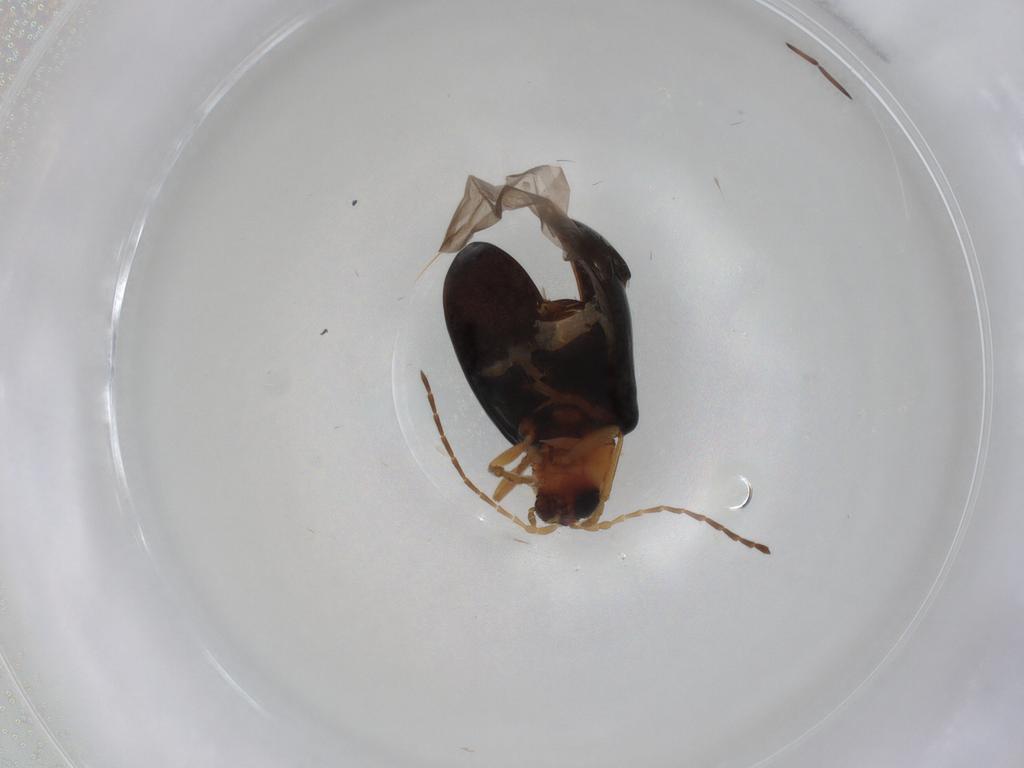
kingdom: Animalia
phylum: Arthropoda
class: Insecta
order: Coleoptera
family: Chrysomelidae
